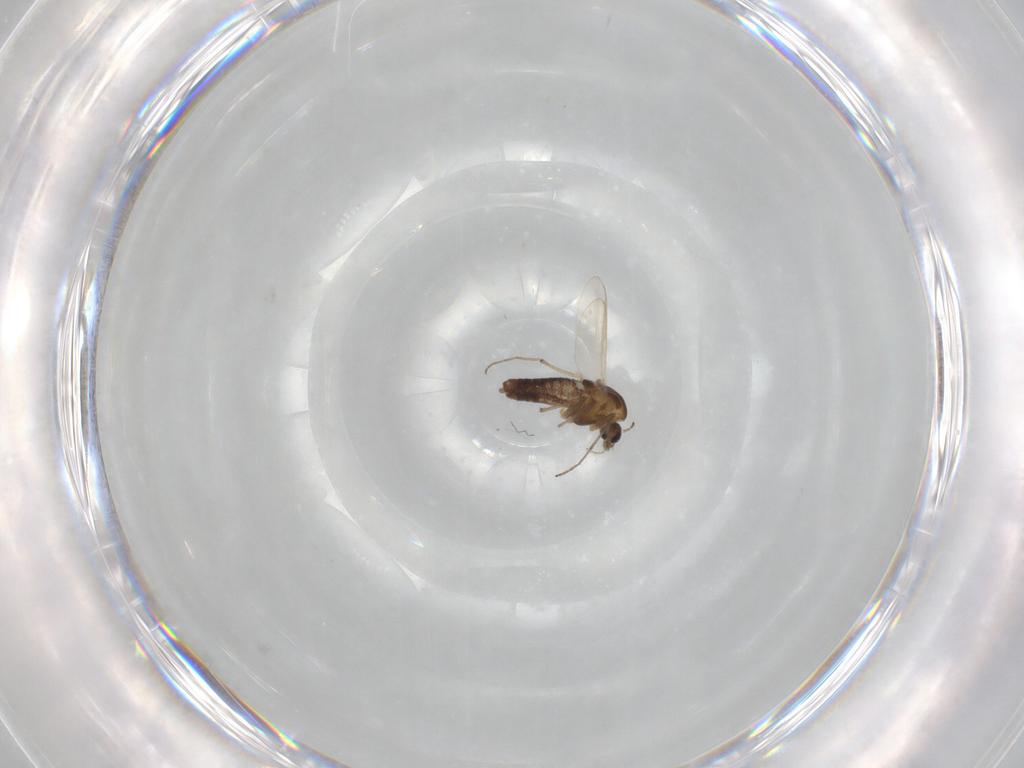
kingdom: Animalia
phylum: Arthropoda
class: Insecta
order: Diptera
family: Chironomidae
